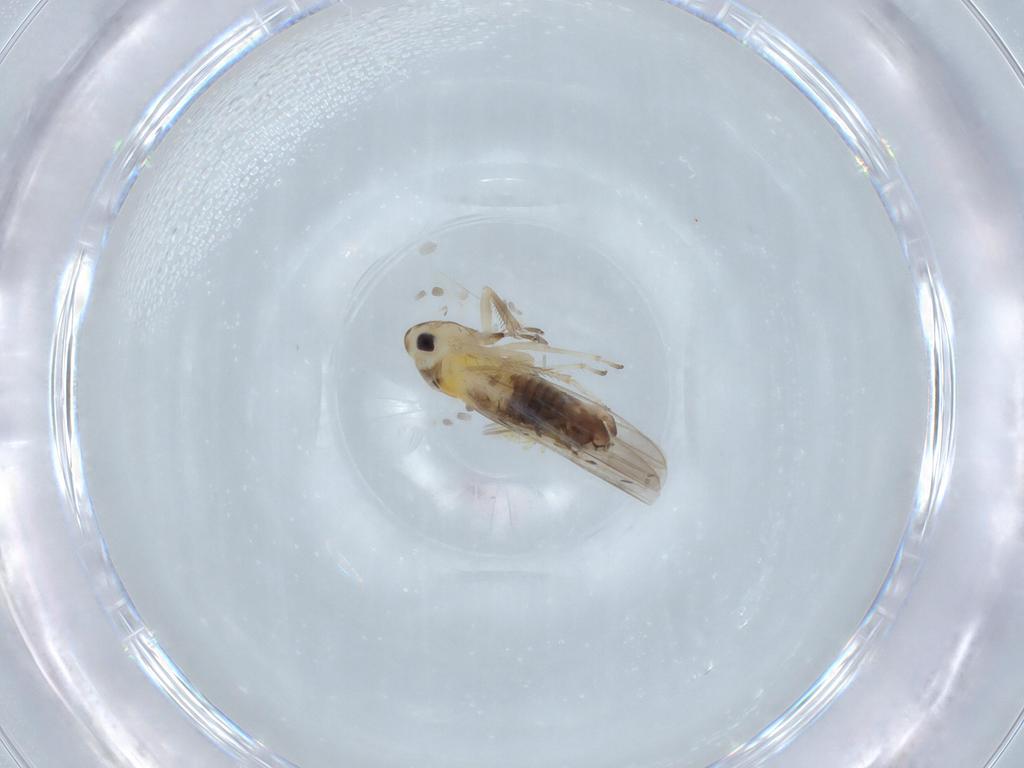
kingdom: Animalia
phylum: Arthropoda
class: Insecta
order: Hemiptera
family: Cicadellidae
